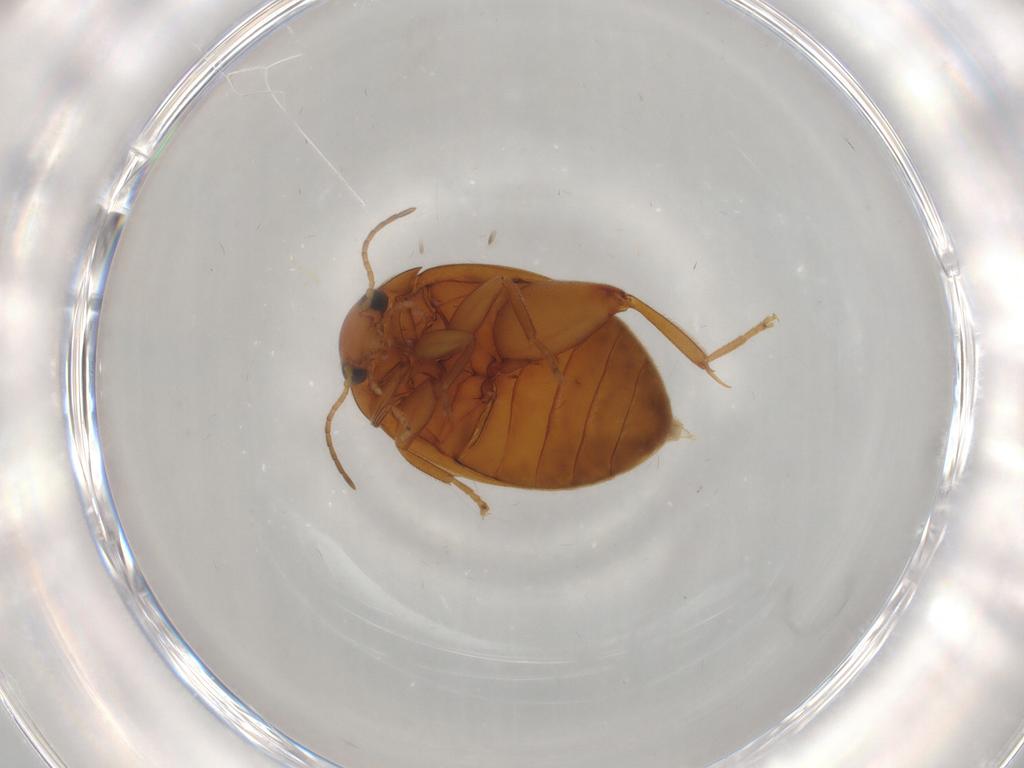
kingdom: Animalia
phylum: Arthropoda
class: Insecta
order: Coleoptera
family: Scirtidae
